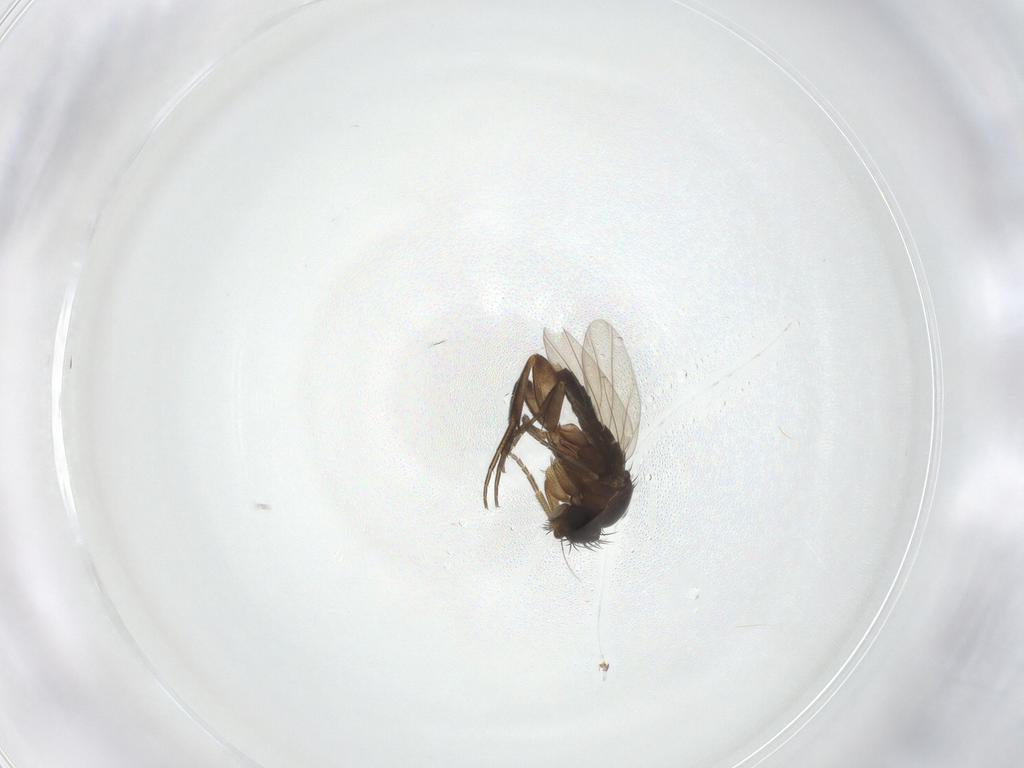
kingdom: Animalia
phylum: Arthropoda
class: Insecta
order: Diptera
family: Phoridae
